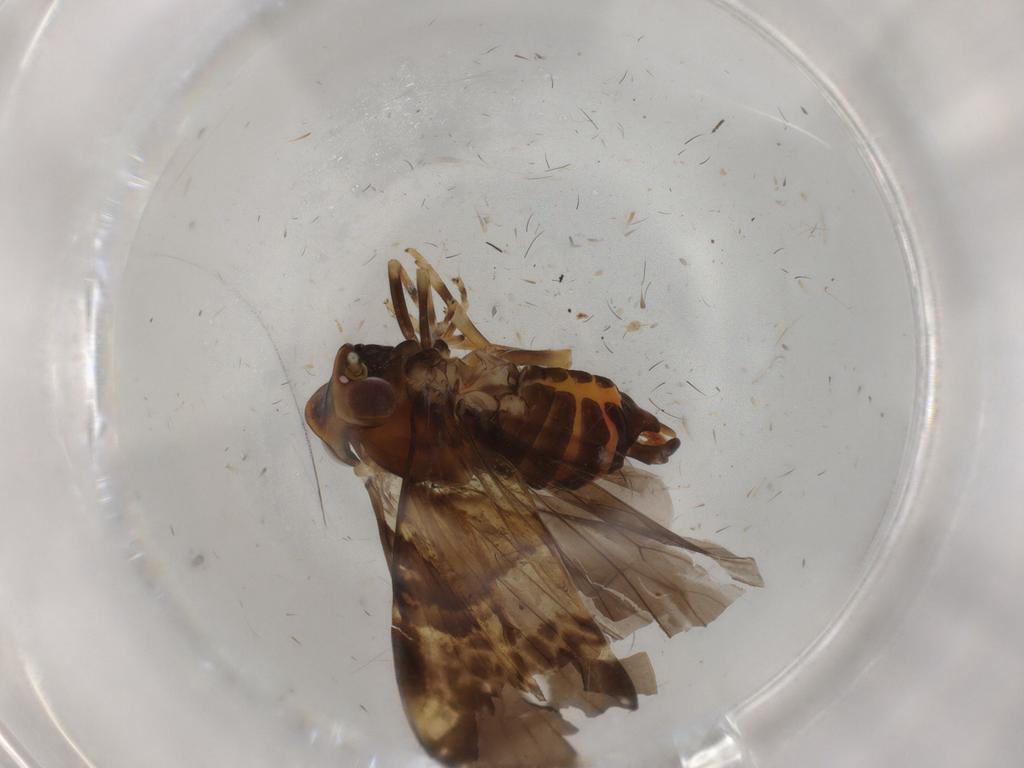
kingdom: Animalia
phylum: Arthropoda
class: Insecta
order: Hemiptera
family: Cixiidae
